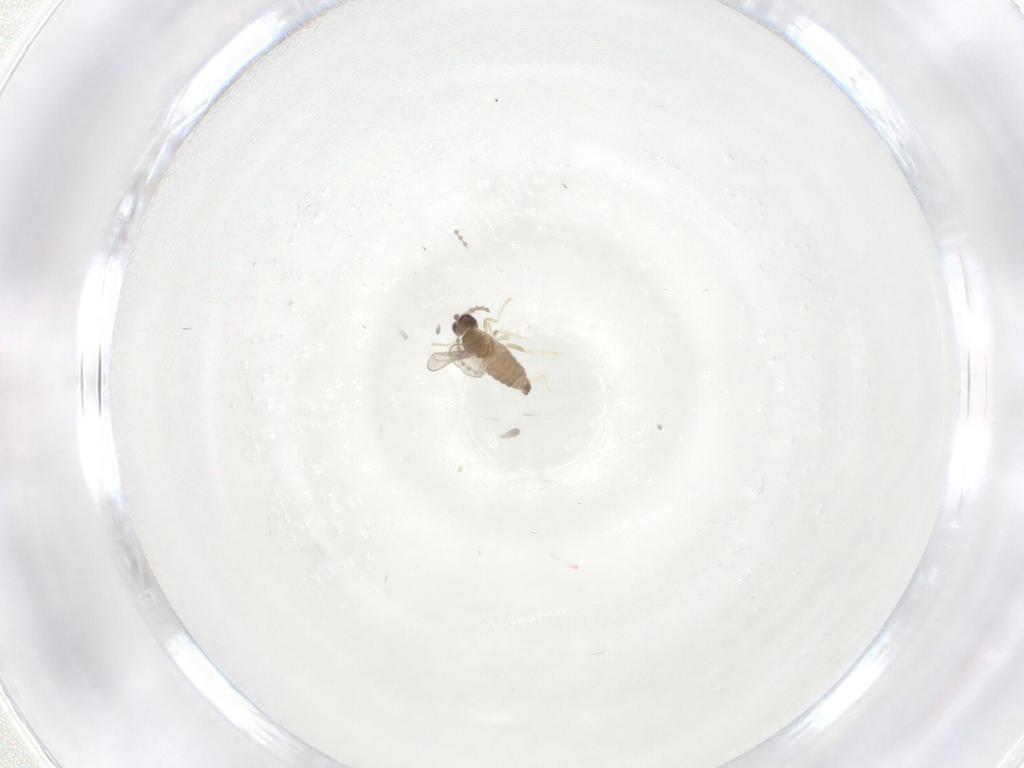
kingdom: Animalia
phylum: Arthropoda
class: Insecta
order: Diptera
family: Cecidomyiidae
